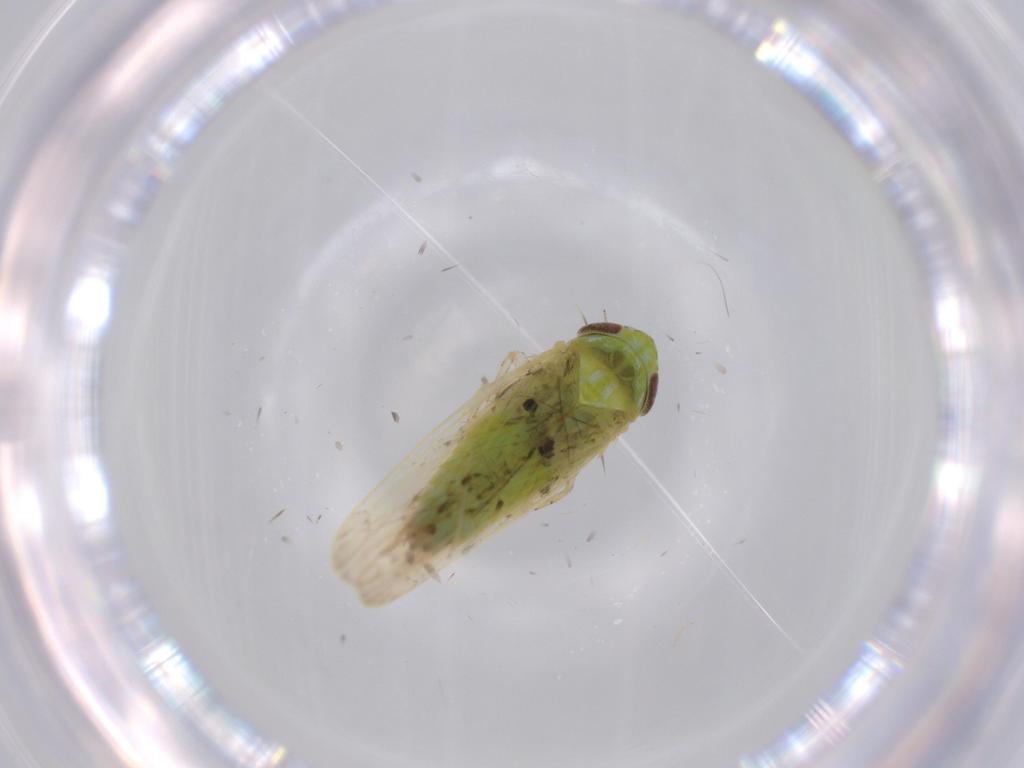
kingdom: Animalia
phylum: Arthropoda
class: Insecta
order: Hemiptera
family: Cicadellidae
